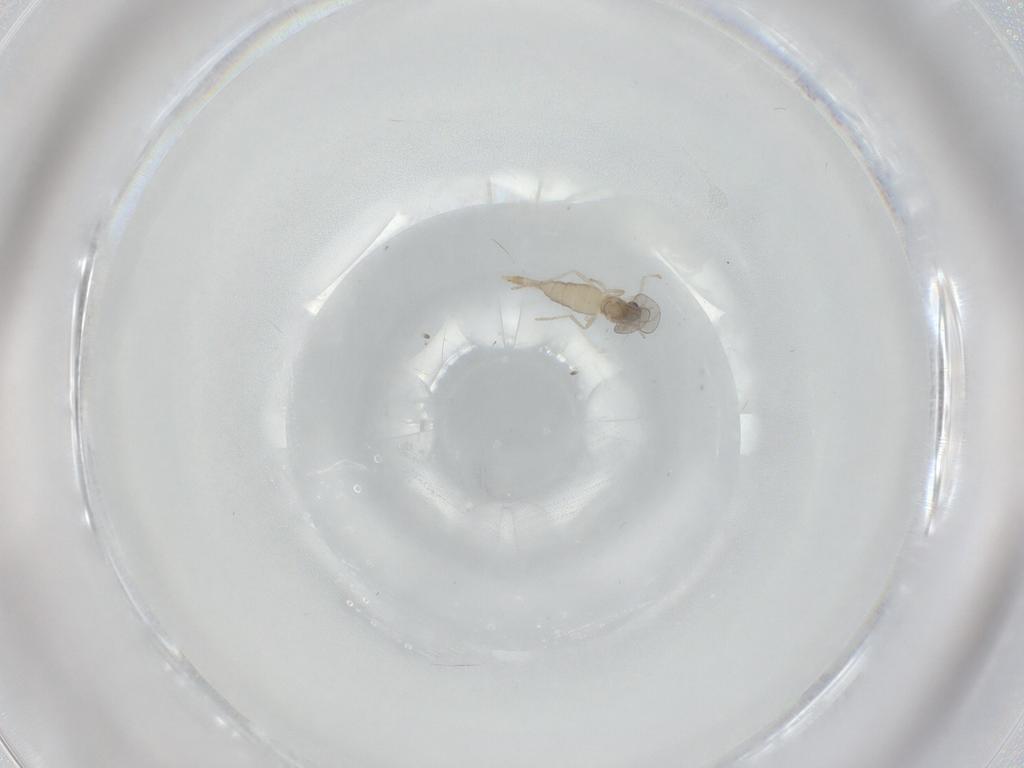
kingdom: Animalia
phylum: Arthropoda
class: Insecta
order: Diptera
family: Cecidomyiidae
